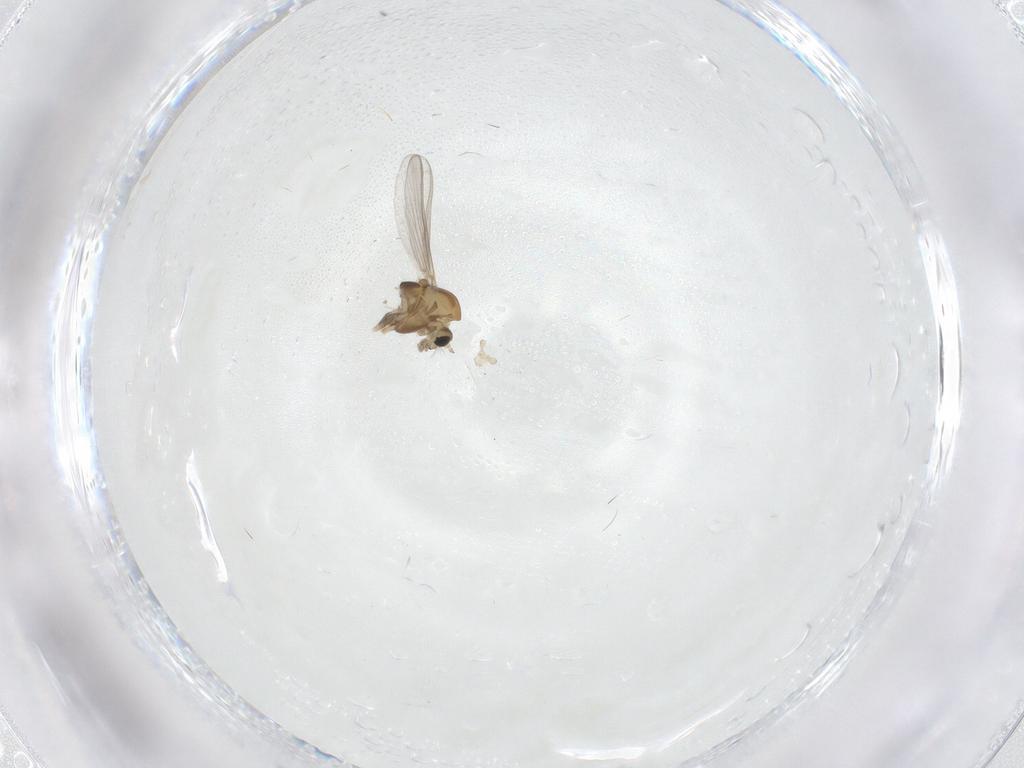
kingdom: Animalia
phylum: Arthropoda
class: Insecta
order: Diptera
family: Chironomidae
